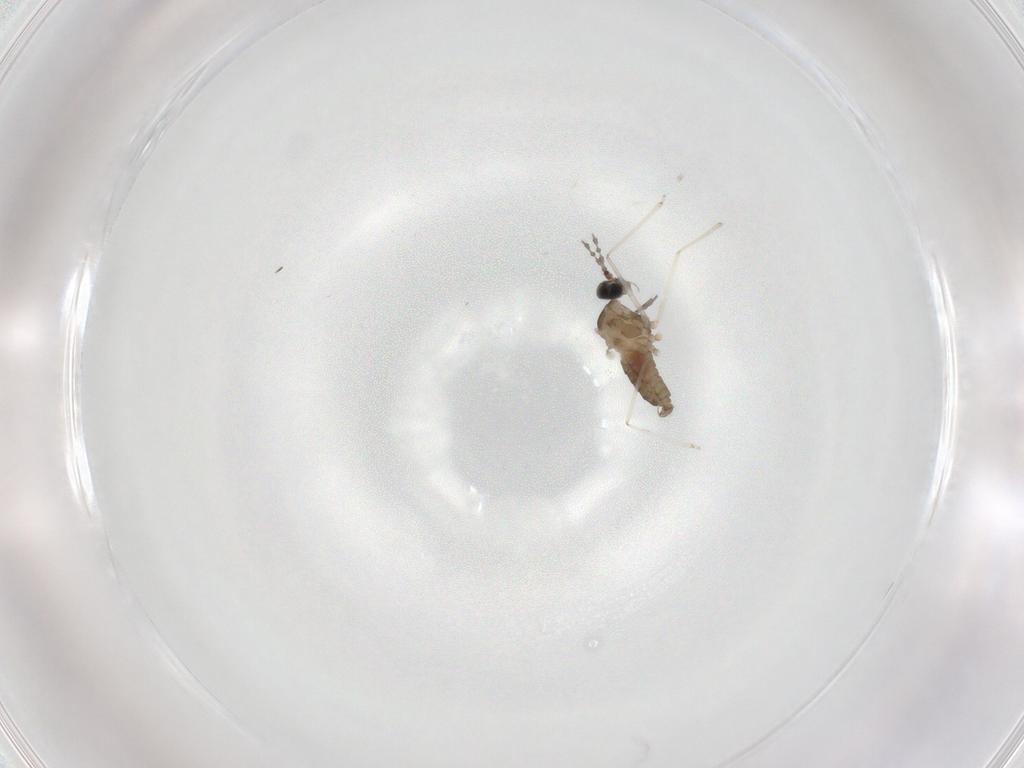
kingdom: Animalia
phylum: Arthropoda
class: Insecta
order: Diptera
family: Cecidomyiidae
